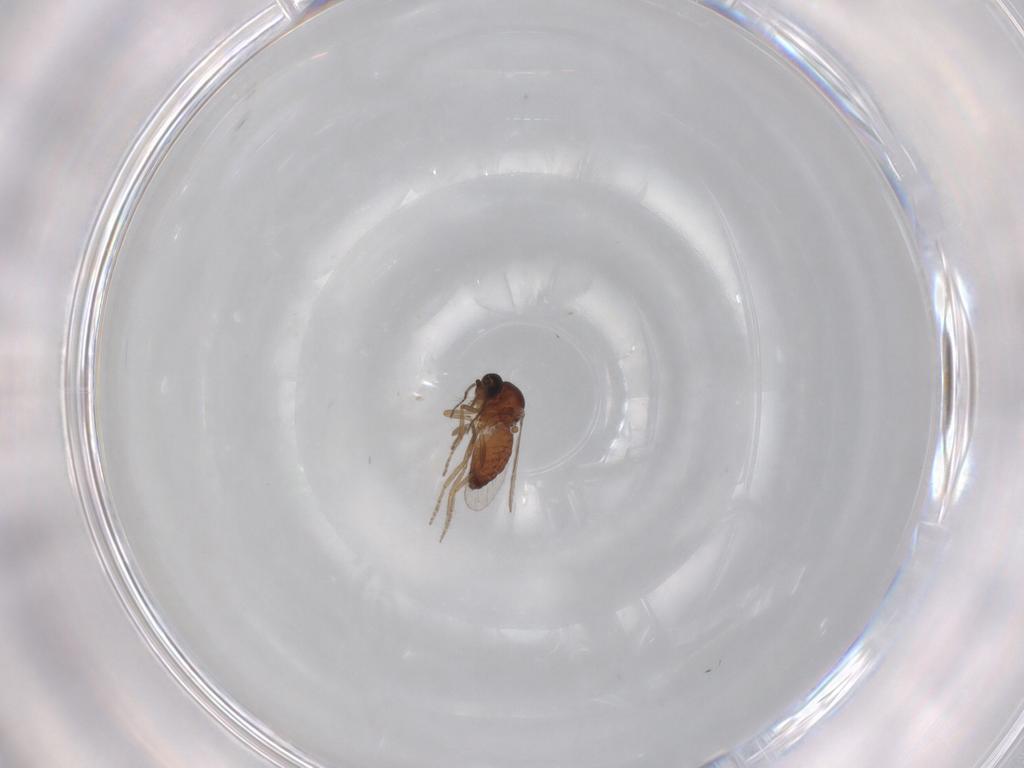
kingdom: Animalia
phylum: Arthropoda
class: Insecta
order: Diptera
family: Ceratopogonidae
